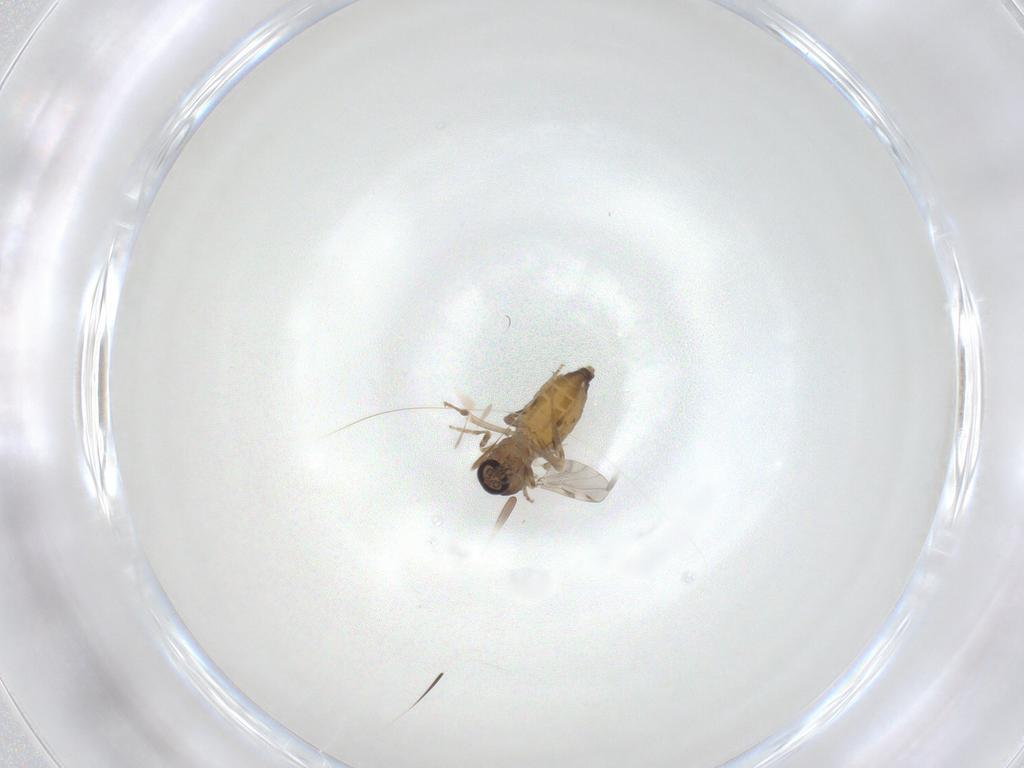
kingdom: Animalia
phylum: Arthropoda
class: Insecta
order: Diptera
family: Ceratopogonidae
